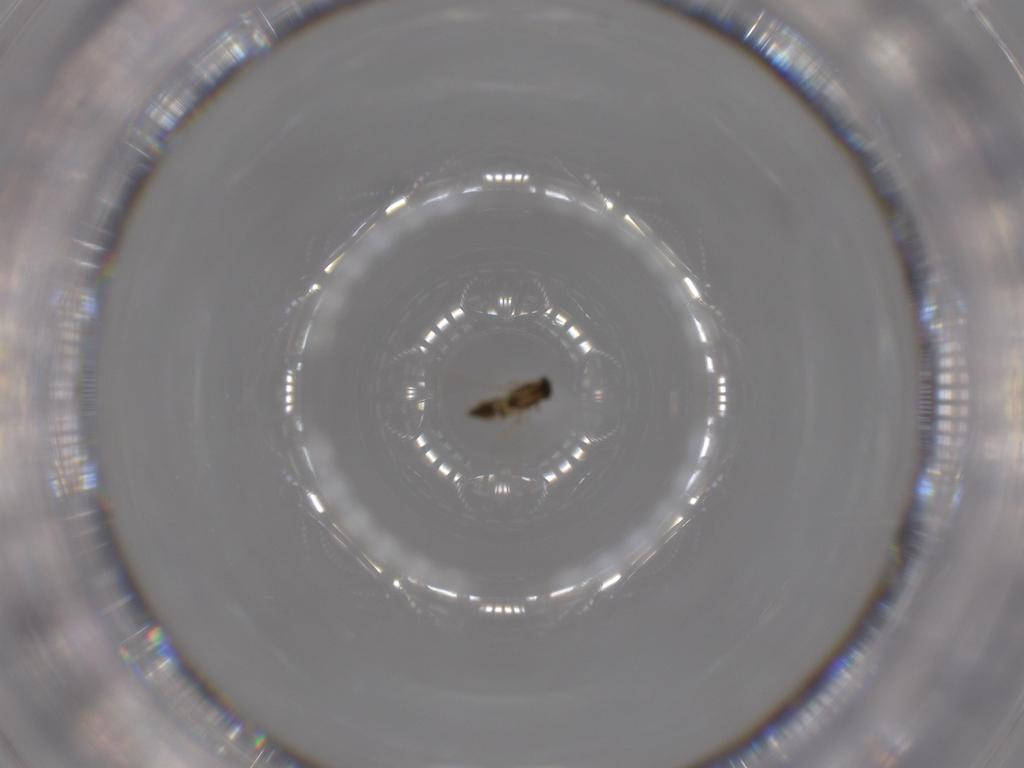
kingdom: Animalia
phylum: Arthropoda
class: Insecta
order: Diptera
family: Chironomidae
